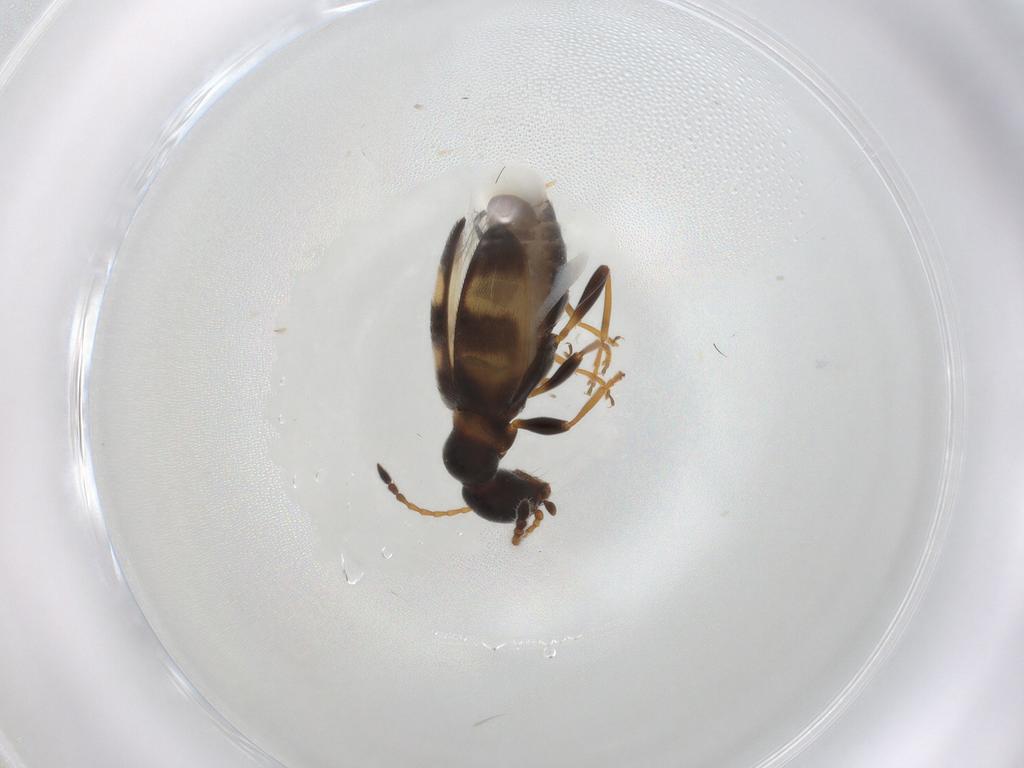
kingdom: Animalia
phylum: Arthropoda
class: Insecta
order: Coleoptera
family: Anthicidae
